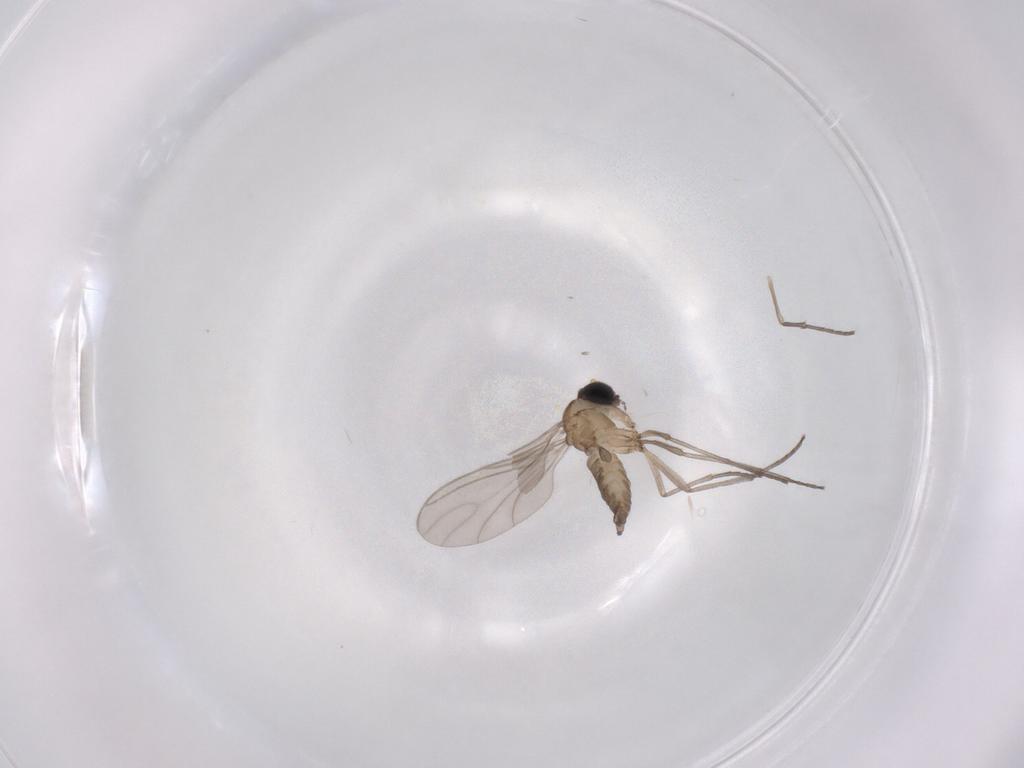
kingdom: Animalia
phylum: Arthropoda
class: Insecta
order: Diptera
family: Sciaridae
